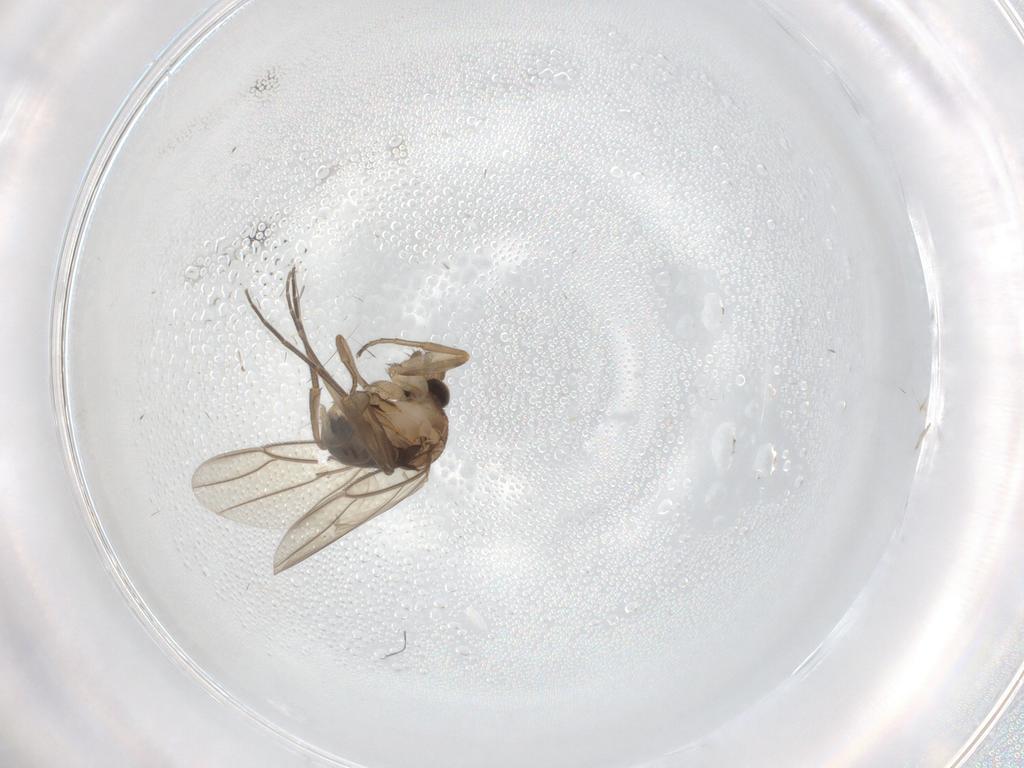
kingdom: Animalia
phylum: Arthropoda
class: Insecta
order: Diptera
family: Phoridae
